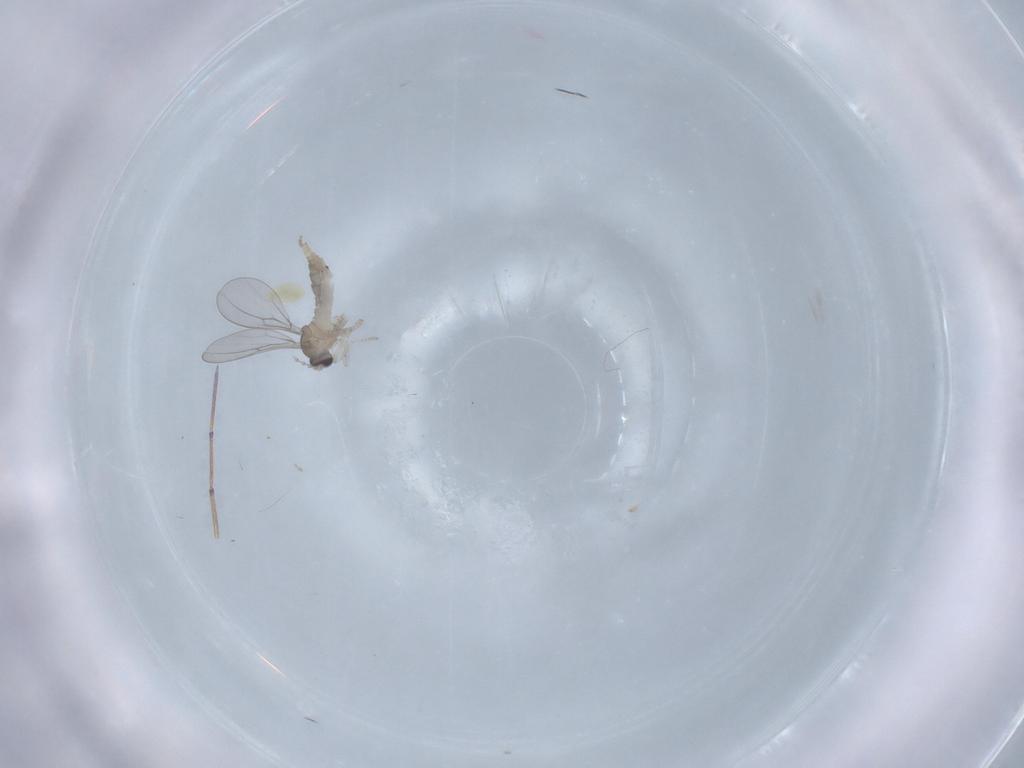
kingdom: Animalia
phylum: Arthropoda
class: Insecta
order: Diptera
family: Cecidomyiidae
